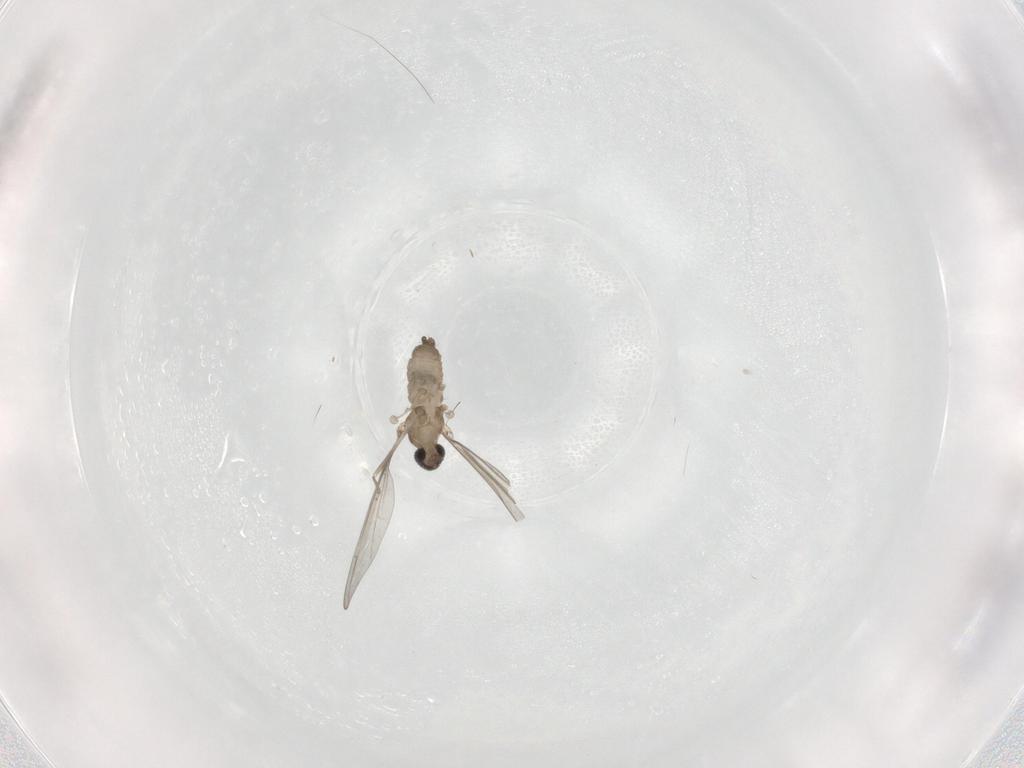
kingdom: Animalia
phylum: Arthropoda
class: Insecta
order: Diptera
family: Cecidomyiidae
